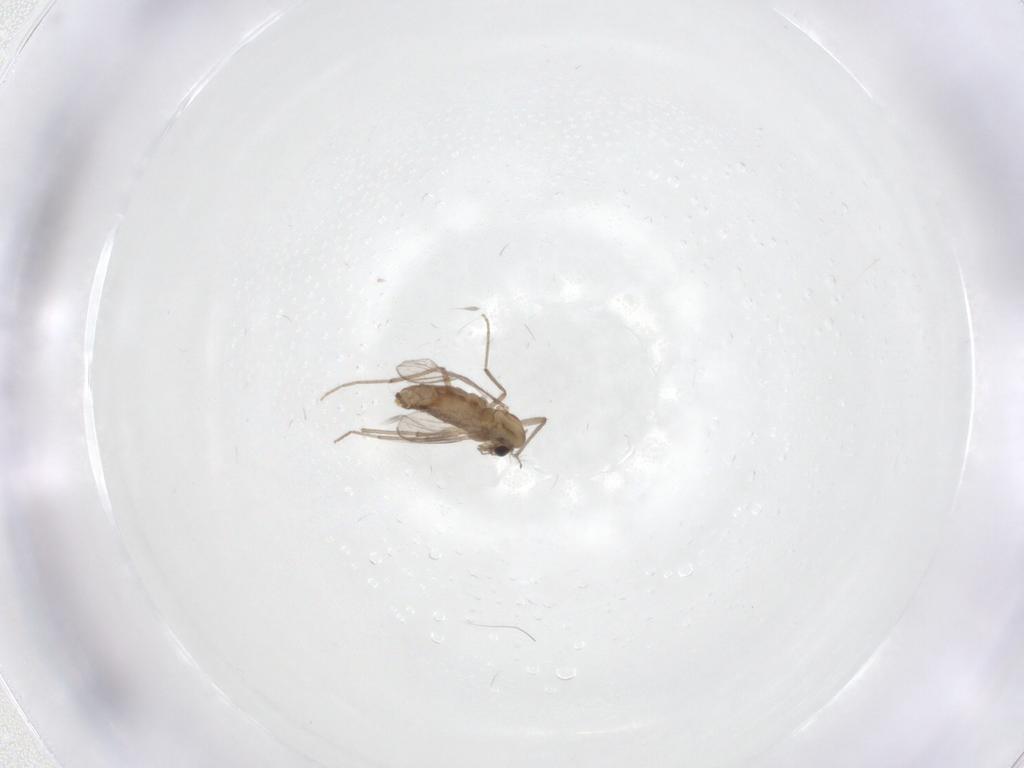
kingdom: Animalia
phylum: Arthropoda
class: Insecta
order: Diptera
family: Chironomidae
